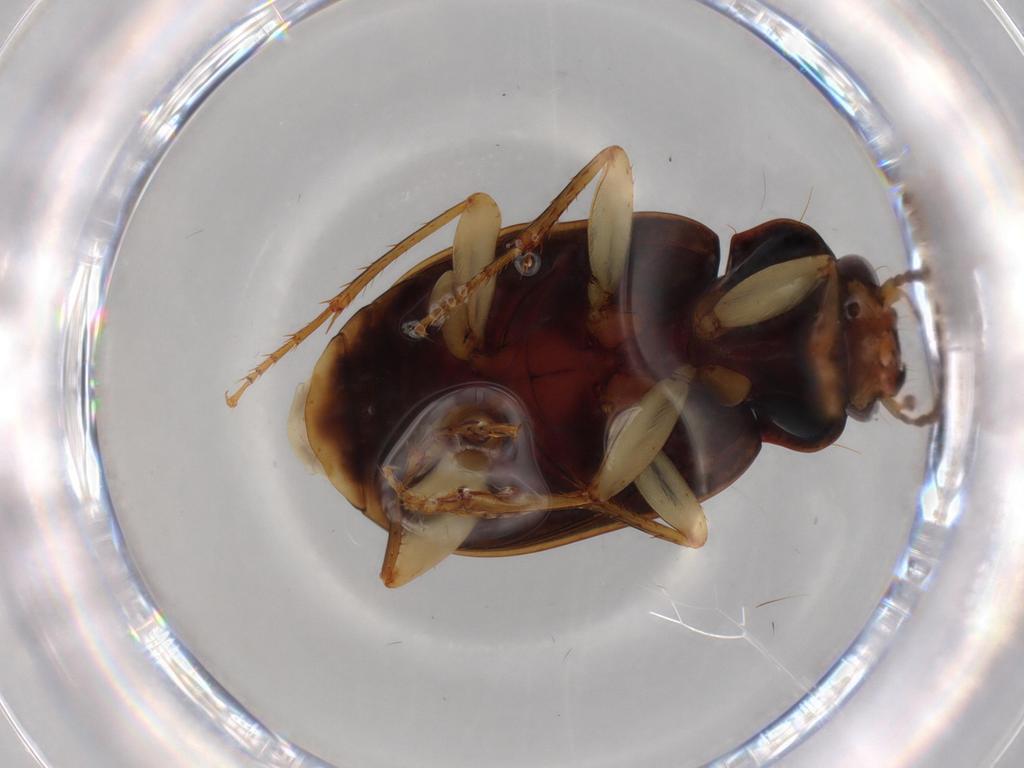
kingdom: Animalia
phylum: Arthropoda
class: Insecta
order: Coleoptera
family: Carabidae
